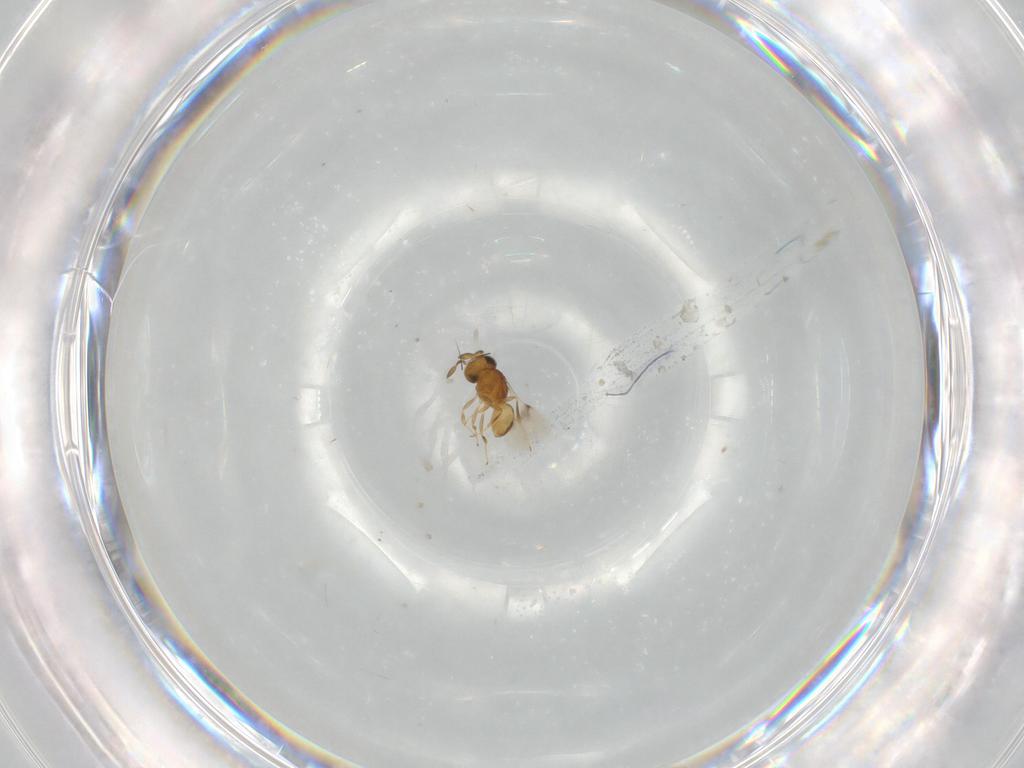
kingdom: Animalia
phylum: Arthropoda
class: Insecta
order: Hymenoptera
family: Scelionidae
